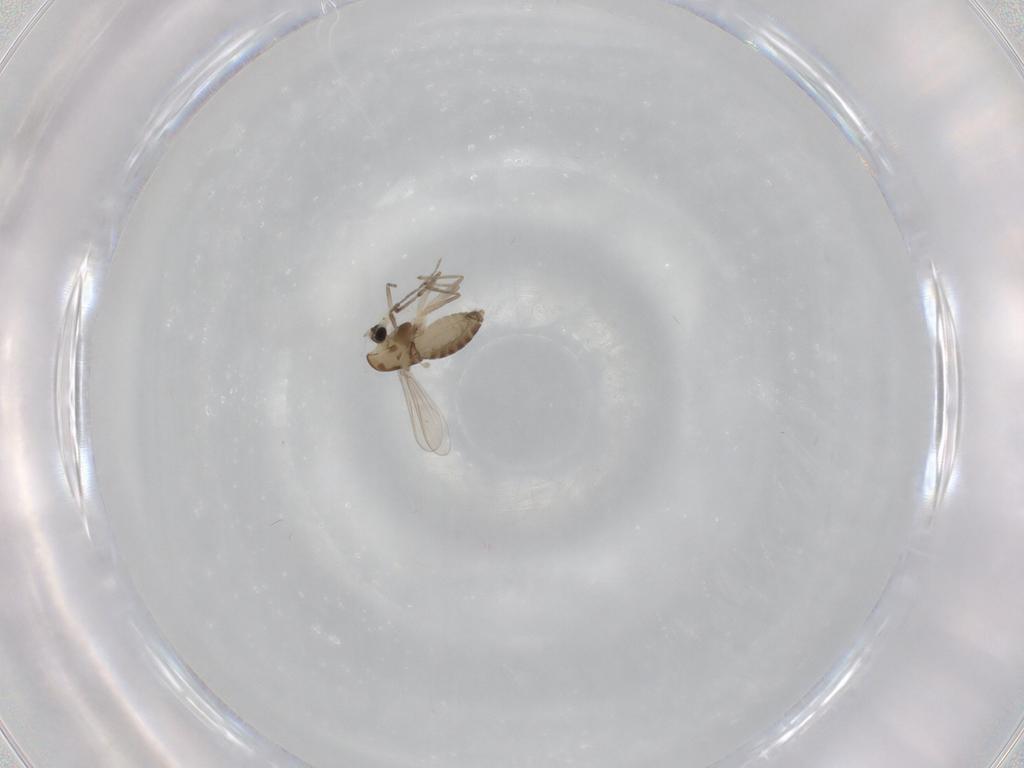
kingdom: Animalia
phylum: Arthropoda
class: Insecta
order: Diptera
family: Chironomidae
